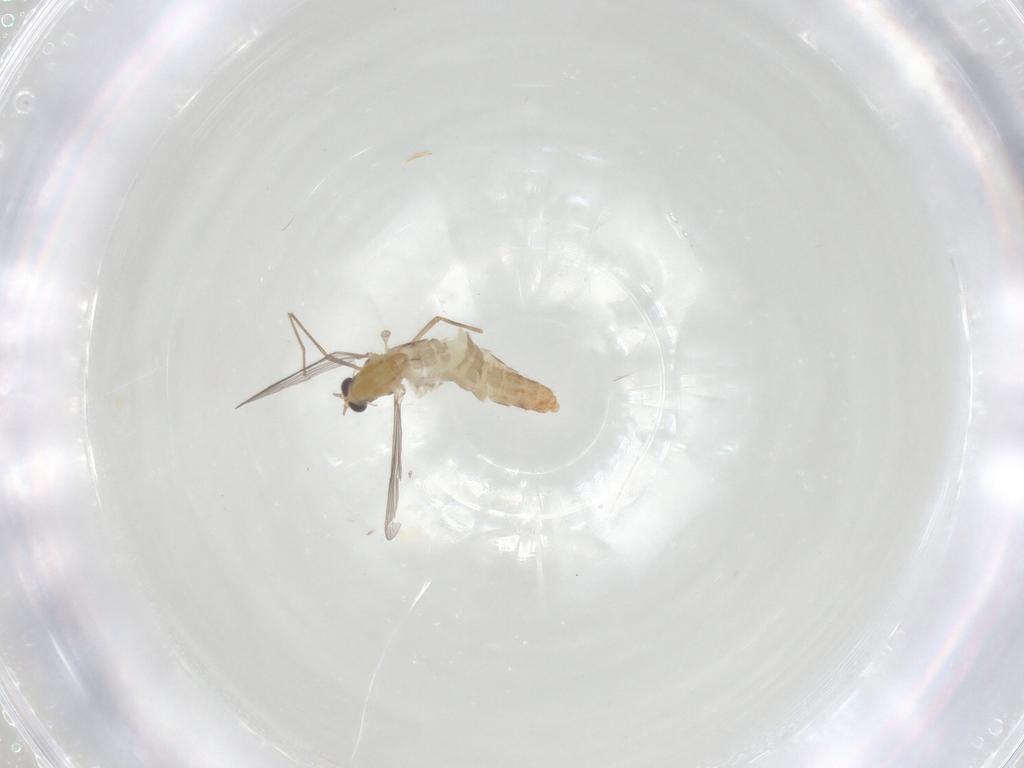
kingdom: Animalia
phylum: Arthropoda
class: Insecta
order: Diptera
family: Chironomidae
